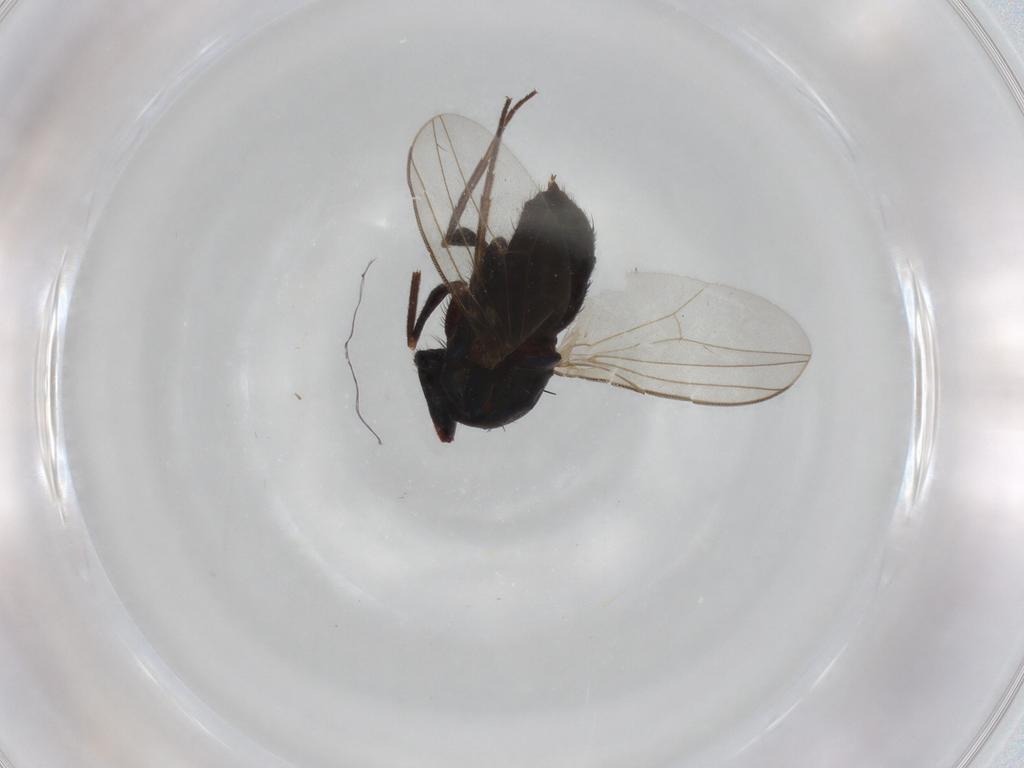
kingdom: Animalia
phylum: Arthropoda
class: Insecta
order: Diptera
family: Dolichopodidae
